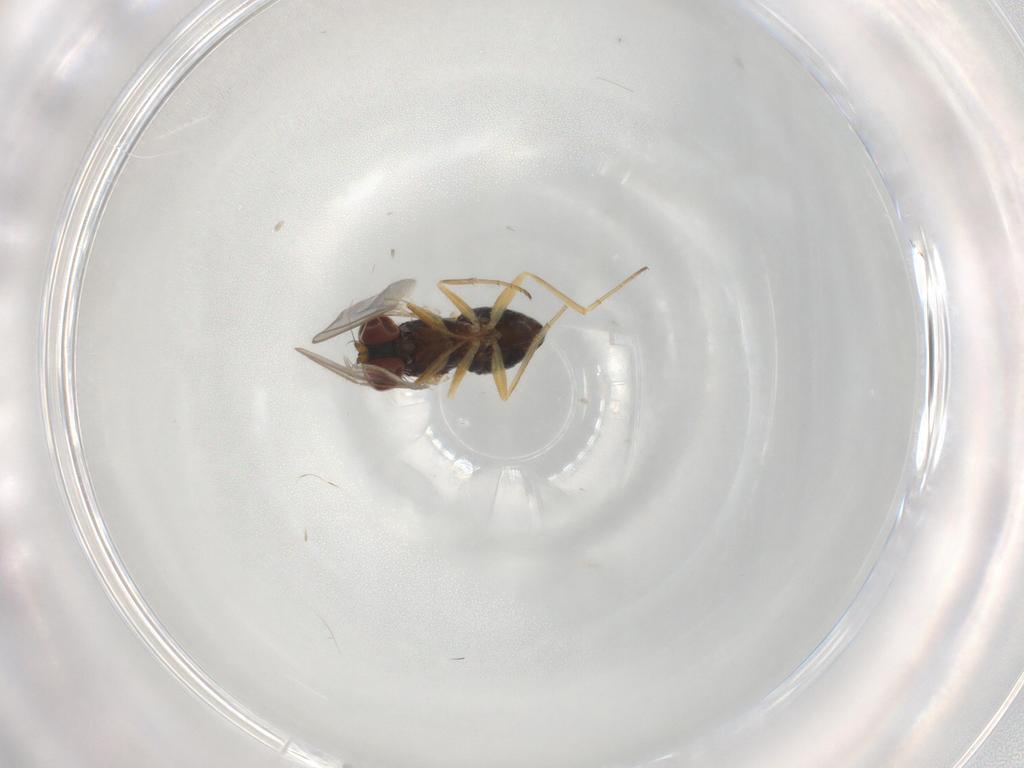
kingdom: Animalia
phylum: Arthropoda
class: Insecta
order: Diptera
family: Dolichopodidae
